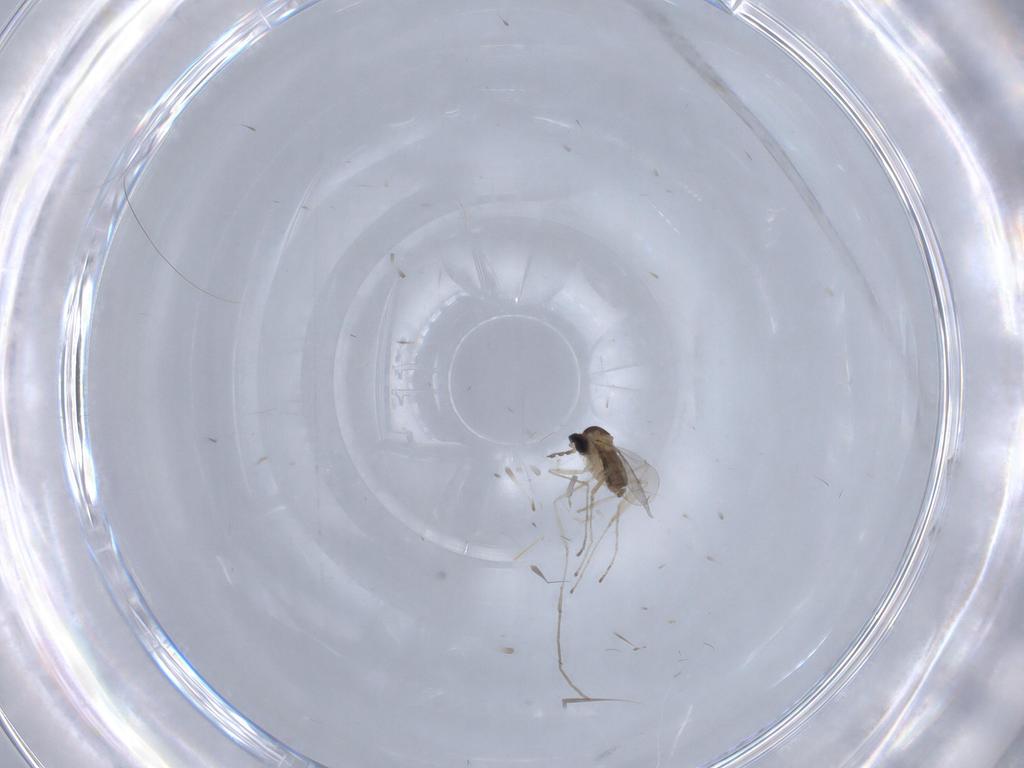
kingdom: Animalia
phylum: Arthropoda
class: Insecta
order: Diptera
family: Cecidomyiidae
